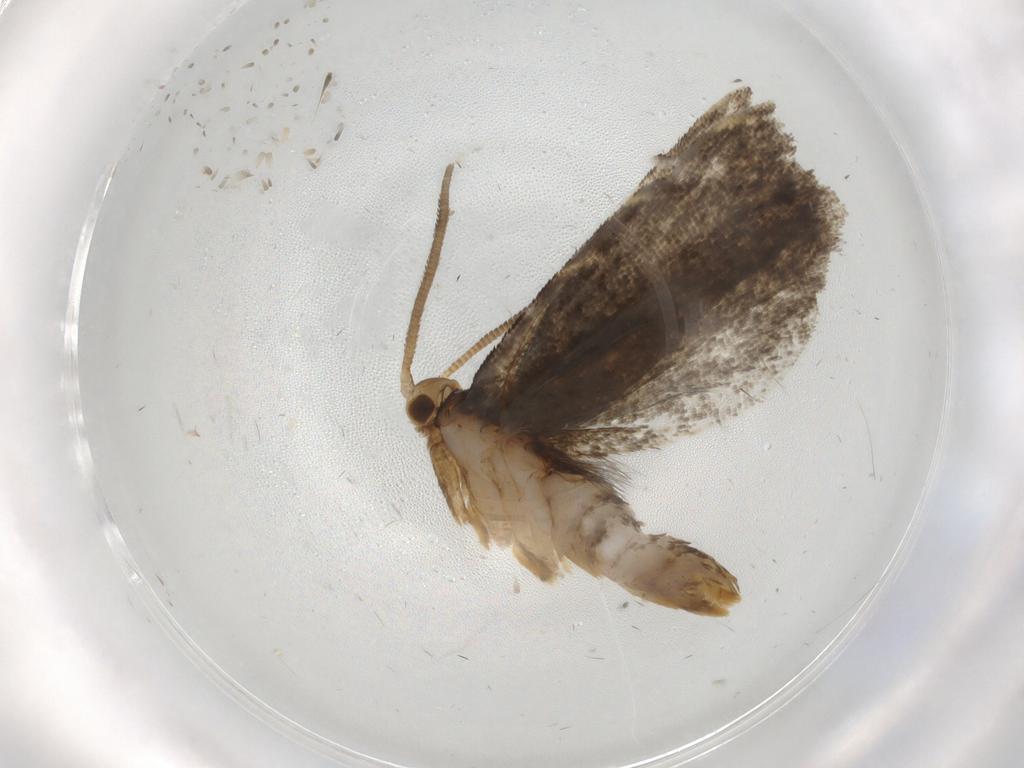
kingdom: Animalia
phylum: Arthropoda
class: Insecta
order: Lepidoptera
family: Dryadaulidae
